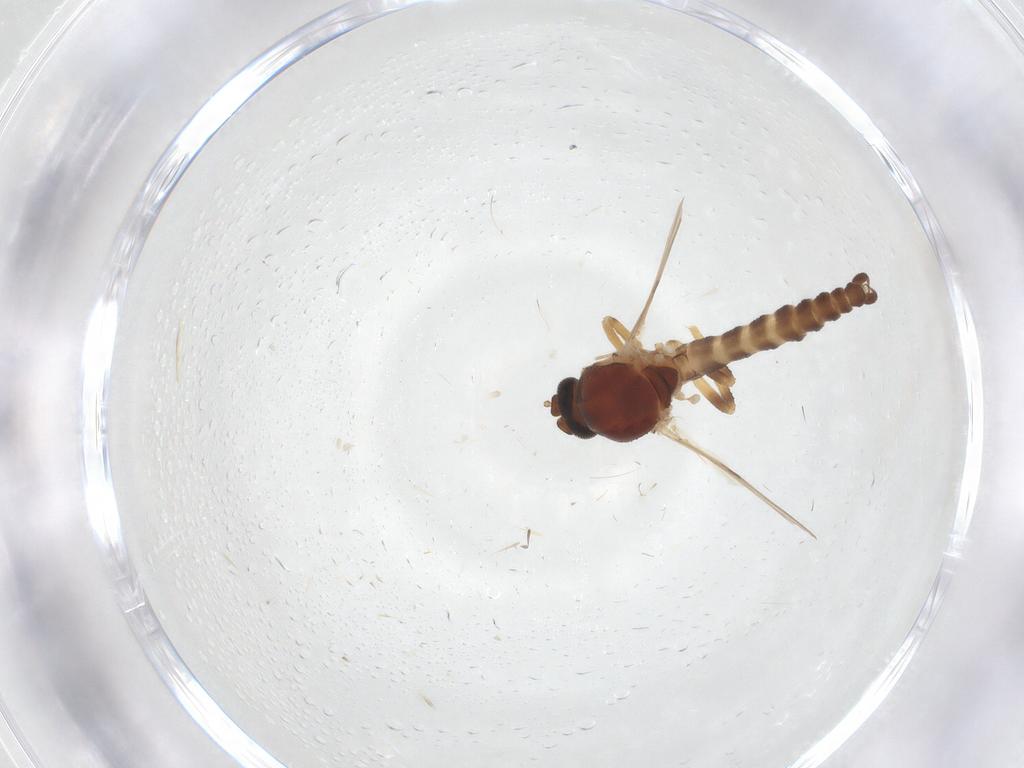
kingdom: Animalia
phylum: Arthropoda
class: Insecta
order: Diptera
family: Ceratopogonidae
